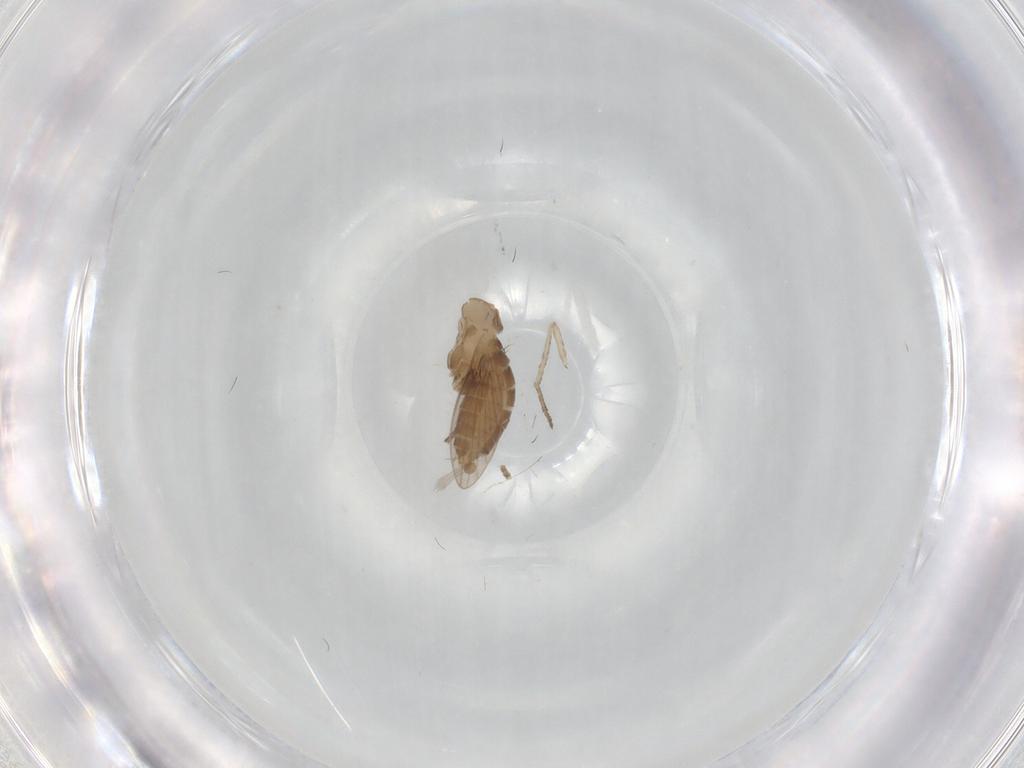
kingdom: Animalia
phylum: Arthropoda
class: Insecta
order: Diptera
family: Psychodidae
